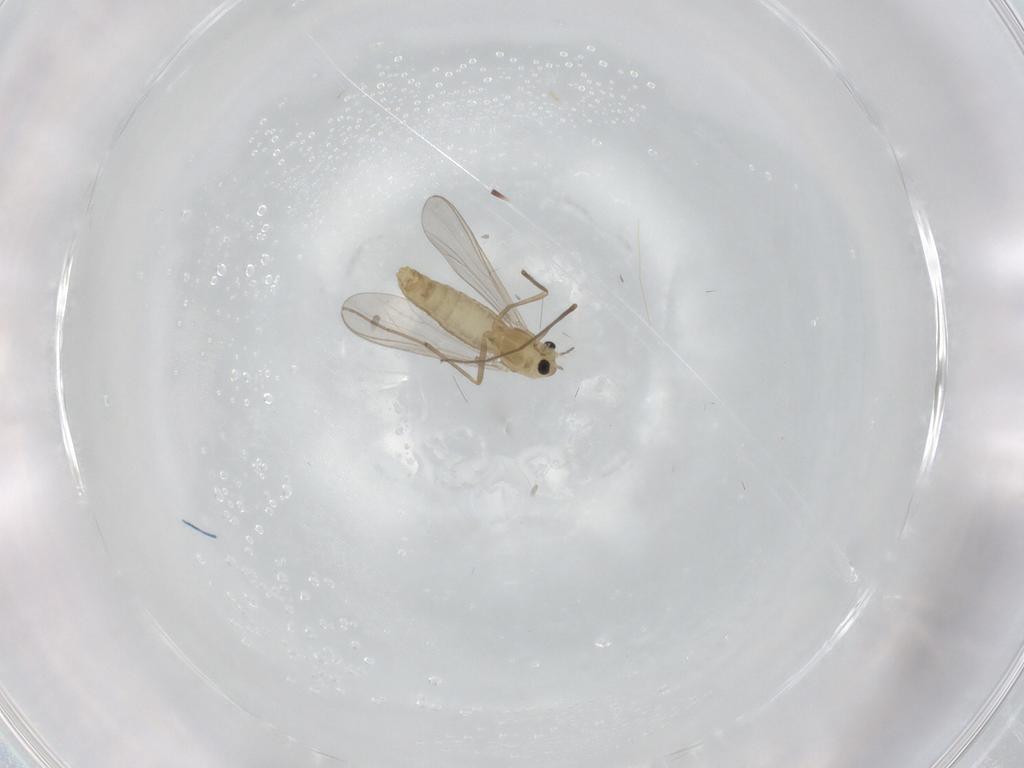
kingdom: Animalia
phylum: Arthropoda
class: Insecta
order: Diptera
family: Chironomidae
